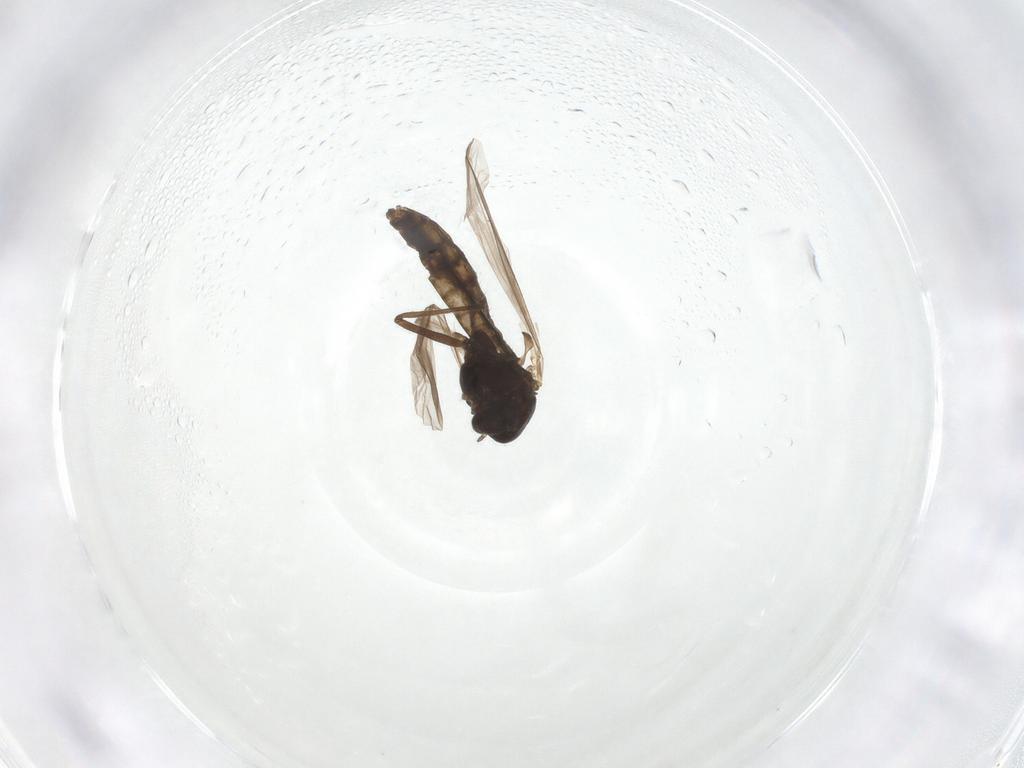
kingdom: Animalia
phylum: Arthropoda
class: Insecta
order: Diptera
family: Chironomidae
